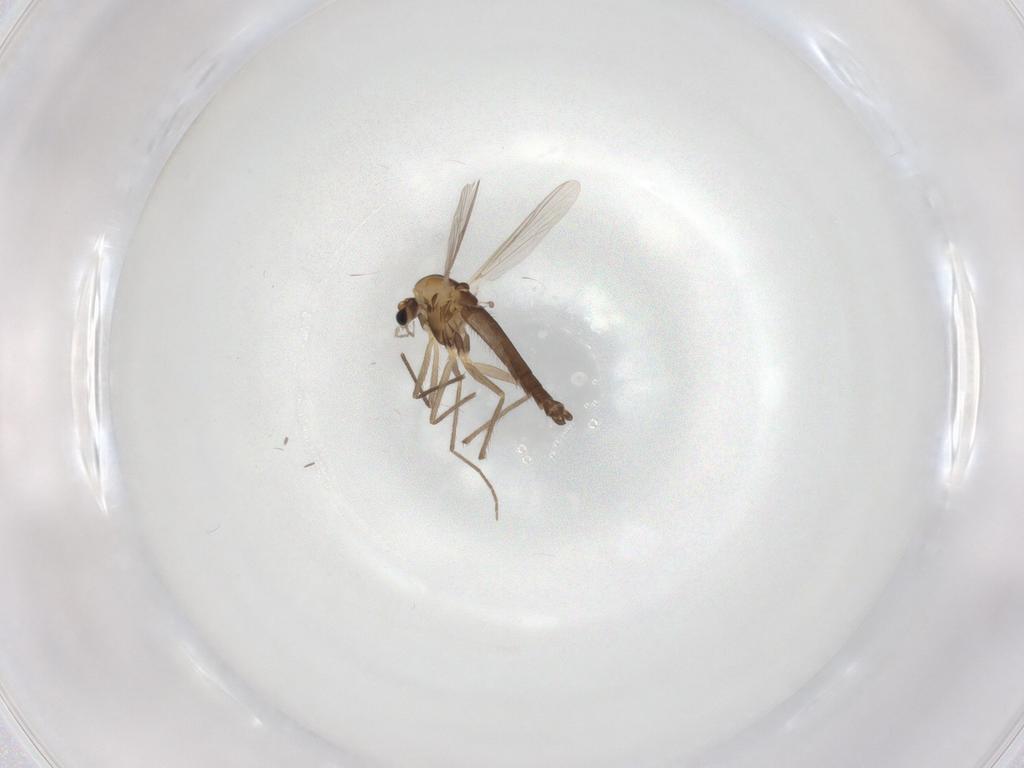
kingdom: Animalia
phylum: Arthropoda
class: Insecta
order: Diptera
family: Chironomidae
